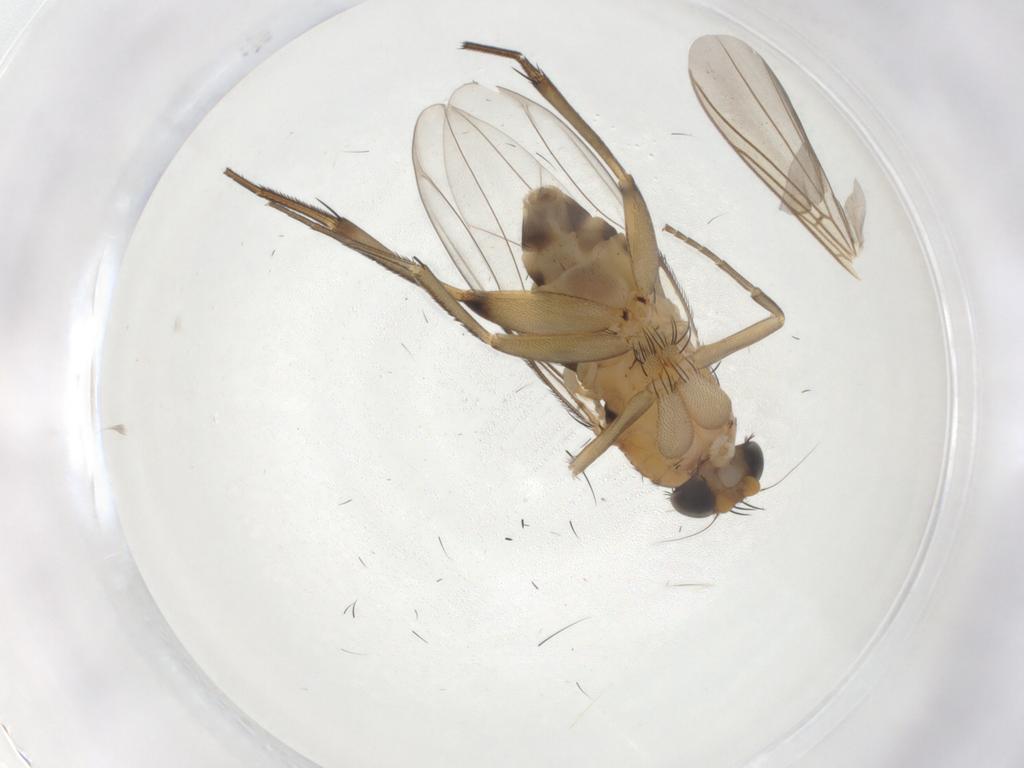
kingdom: Animalia
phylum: Arthropoda
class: Insecta
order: Diptera
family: Phoridae
